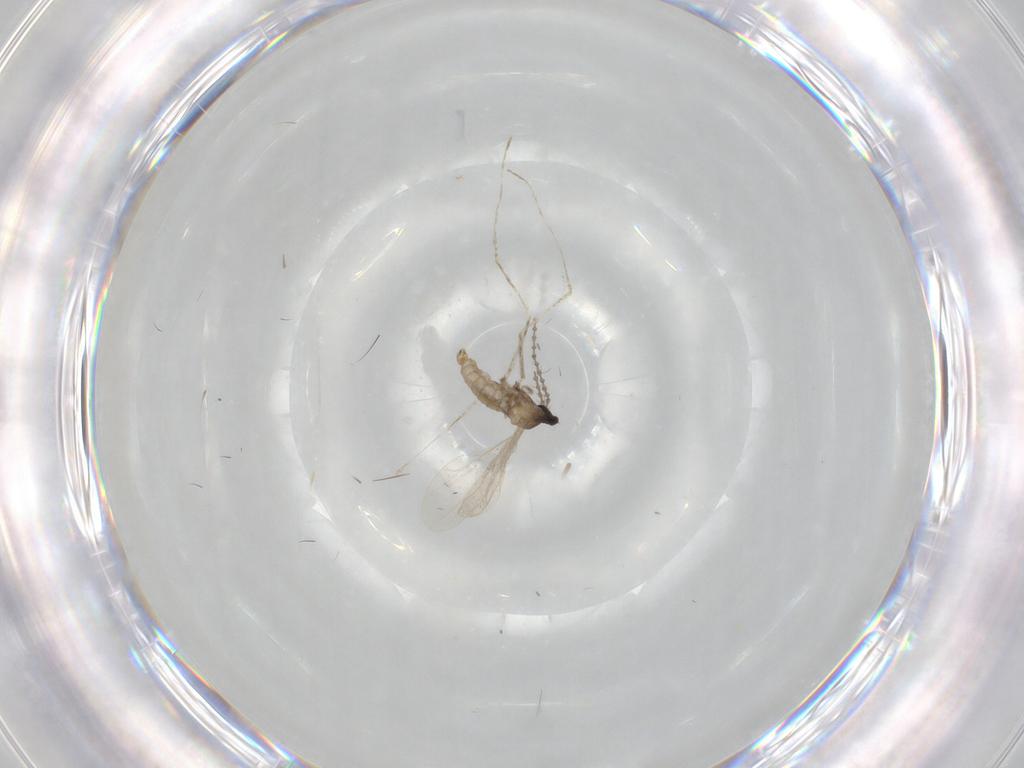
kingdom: Animalia
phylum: Arthropoda
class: Insecta
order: Diptera
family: Cecidomyiidae
